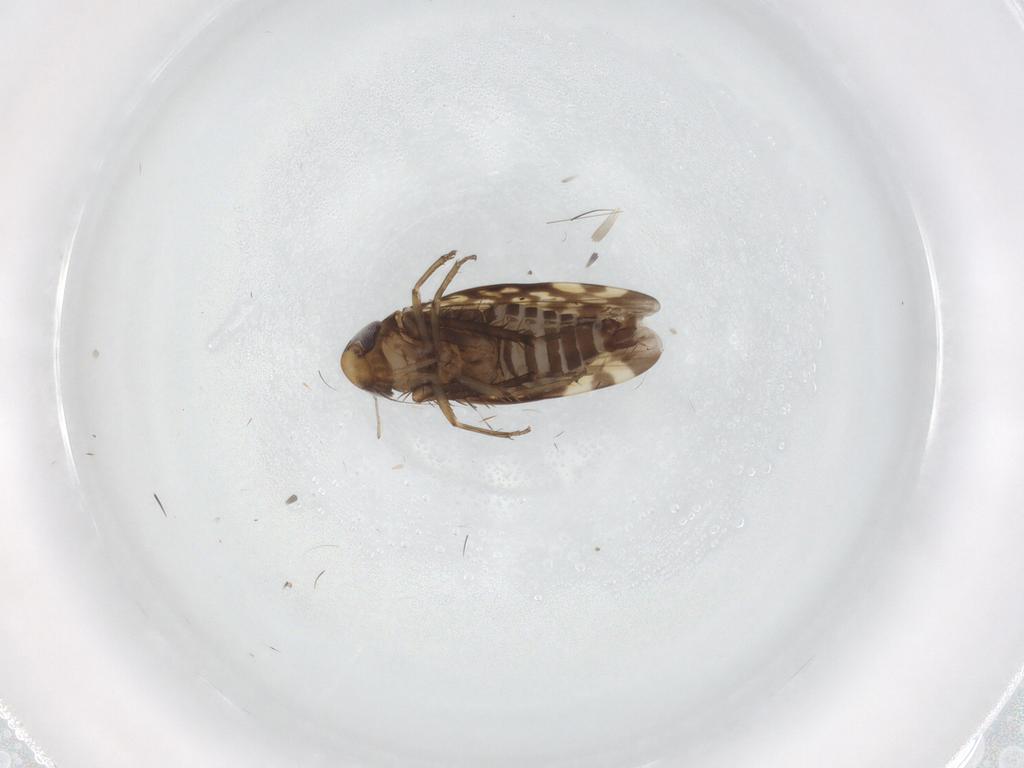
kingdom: Animalia
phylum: Arthropoda
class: Insecta
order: Hemiptera
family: Cicadellidae
